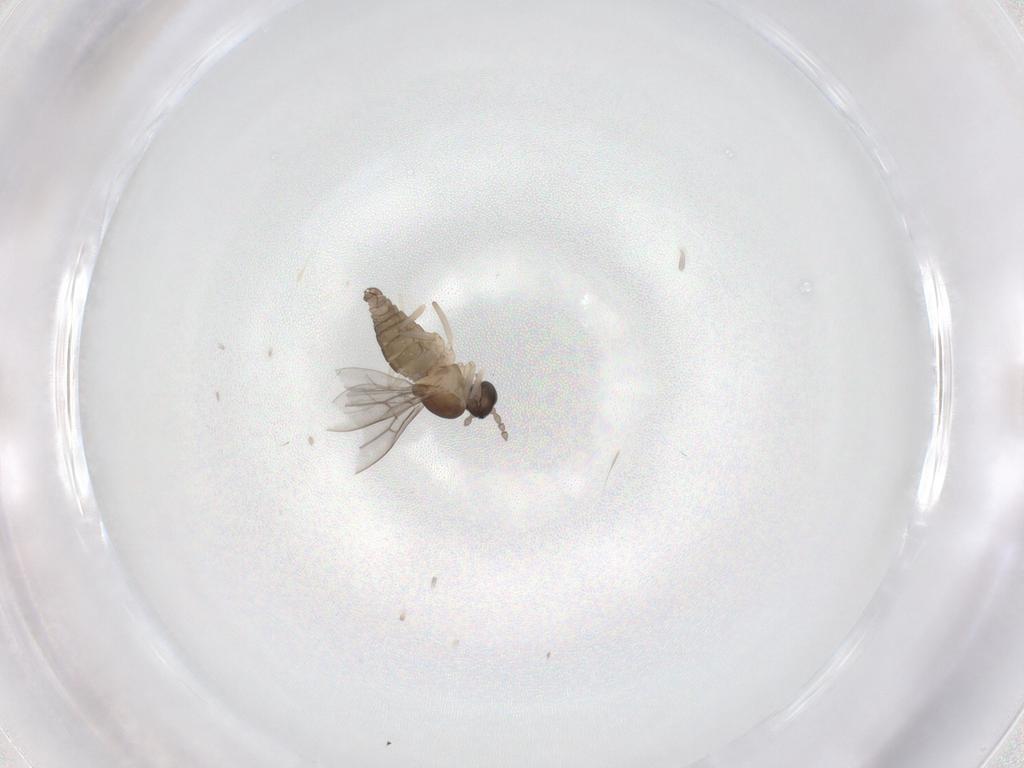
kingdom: Animalia
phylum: Arthropoda
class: Insecta
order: Diptera
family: Cecidomyiidae
